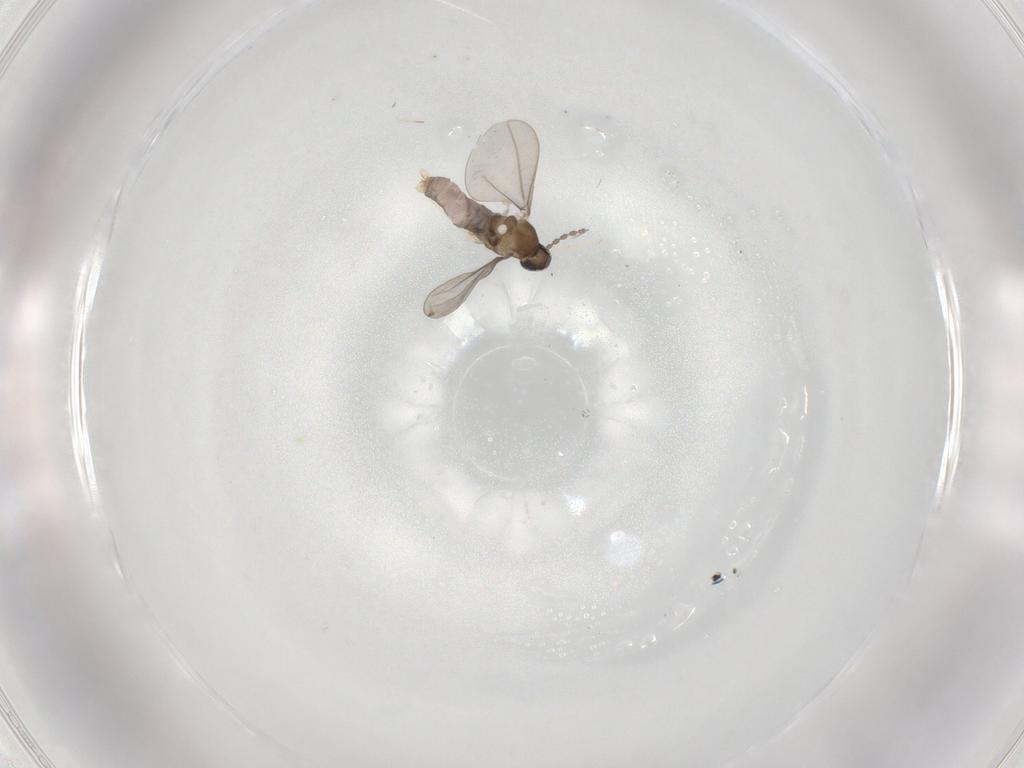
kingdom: Animalia
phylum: Arthropoda
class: Insecta
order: Diptera
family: Cecidomyiidae
